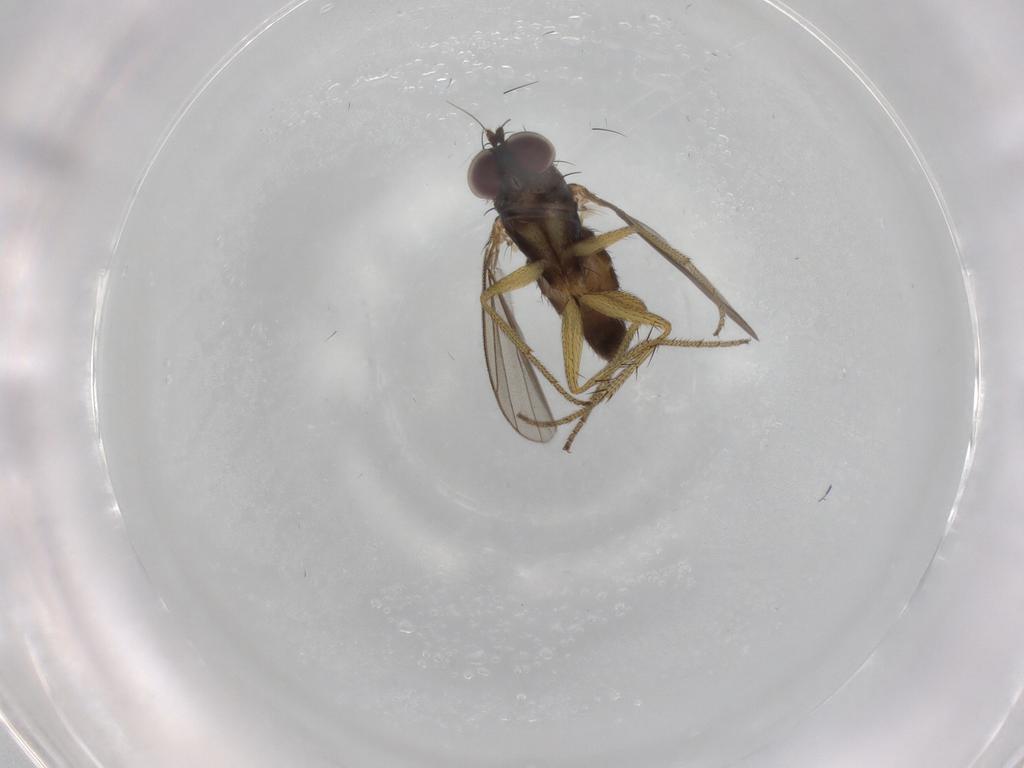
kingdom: Animalia
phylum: Arthropoda
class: Insecta
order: Diptera
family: Dolichopodidae
